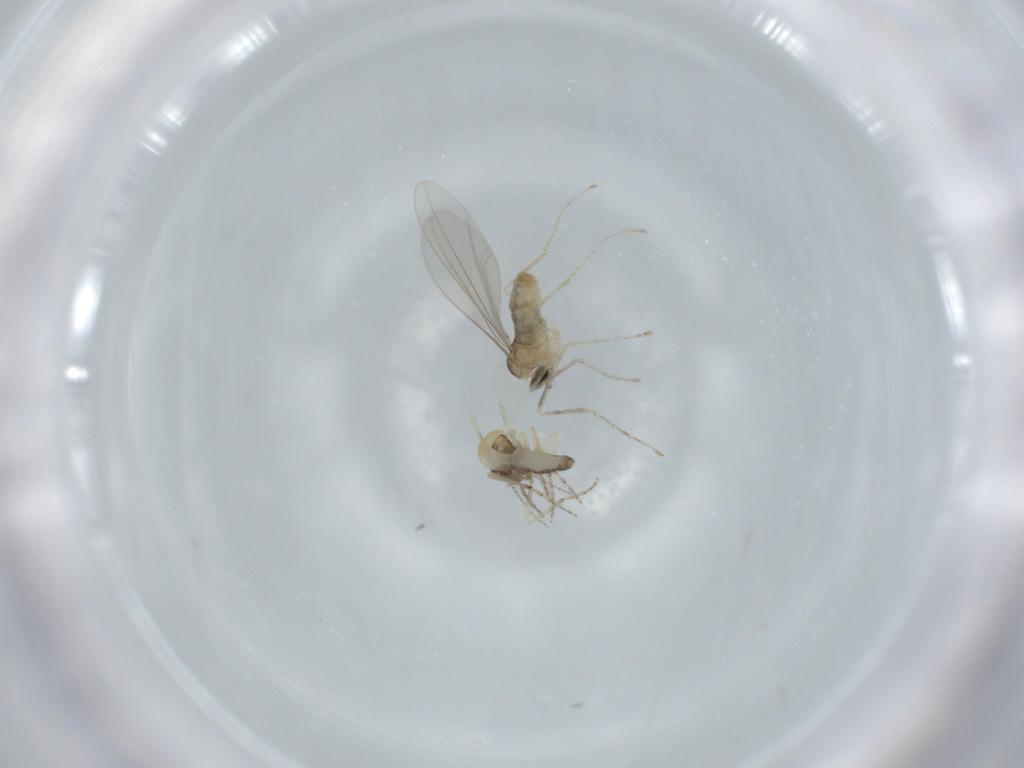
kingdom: Animalia
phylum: Arthropoda
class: Insecta
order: Diptera
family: Cecidomyiidae
